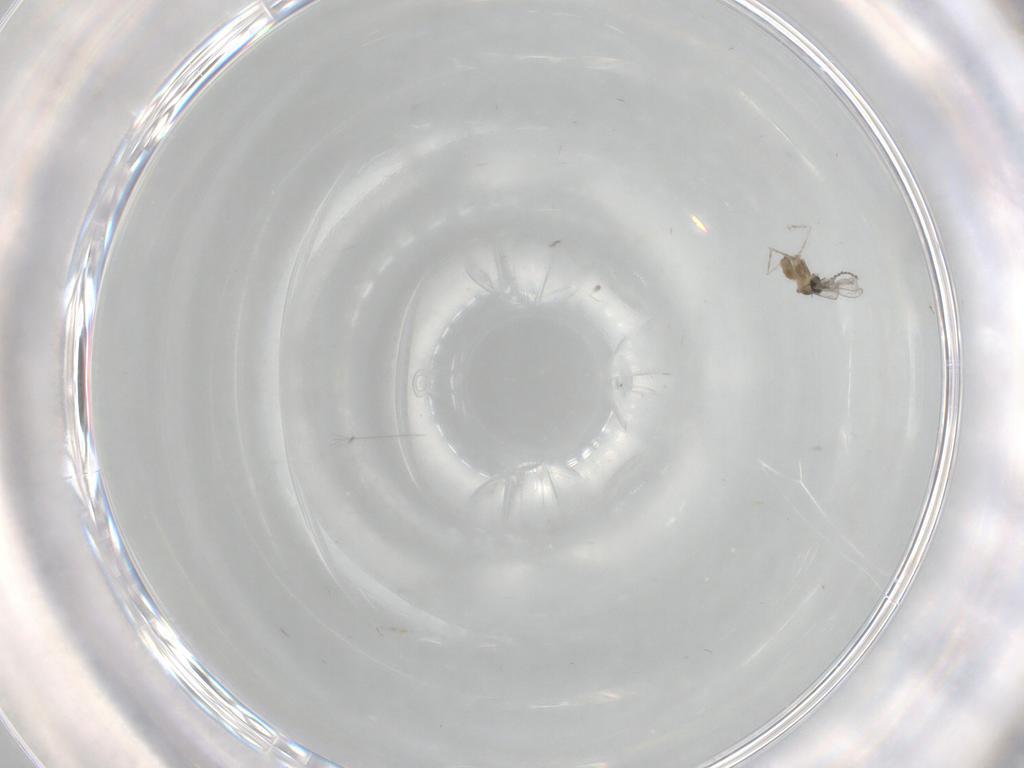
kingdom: Animalia
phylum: Arthropoda
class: Insecta
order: Diptera
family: Cecidomyiidae
